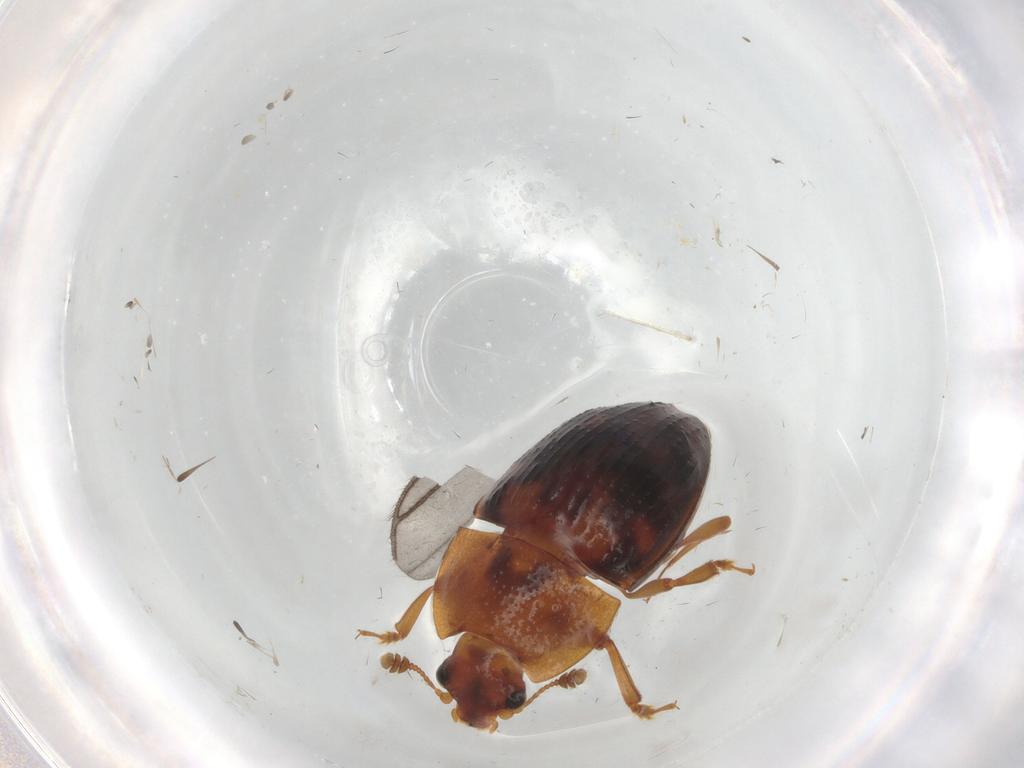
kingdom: Animalia
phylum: Arthropoda
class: Insecta
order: Coleoptera
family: Nitidulidae
